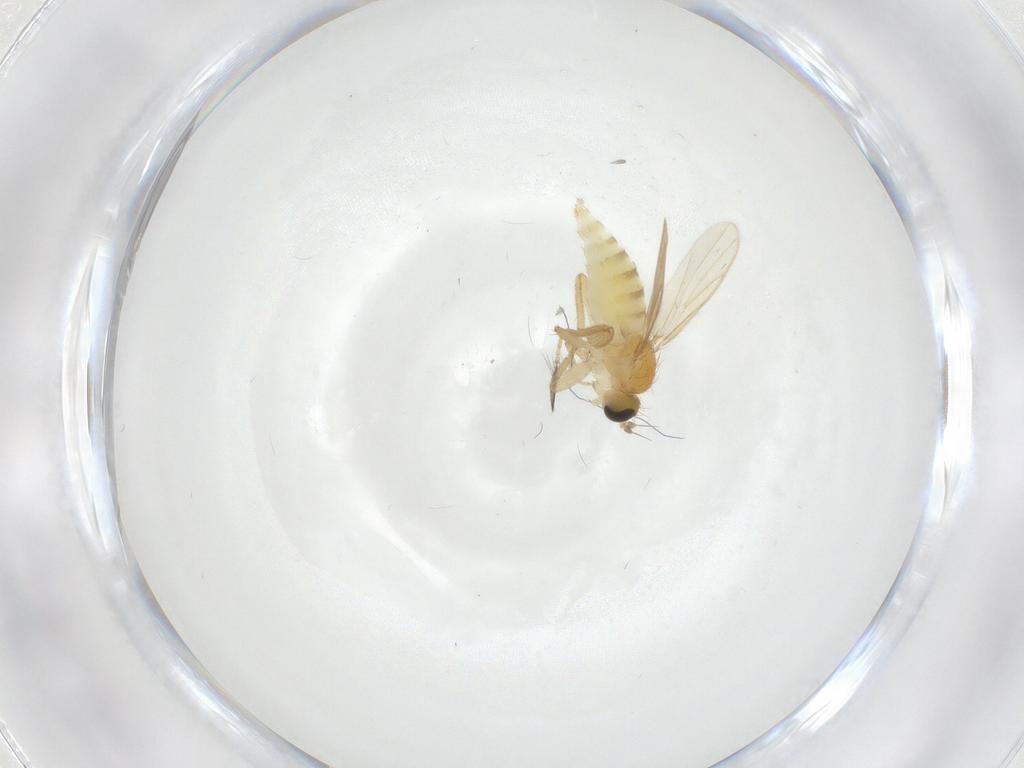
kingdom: Animalia
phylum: Arthropoda
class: Insecta
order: Diptera
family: Hybotidae
